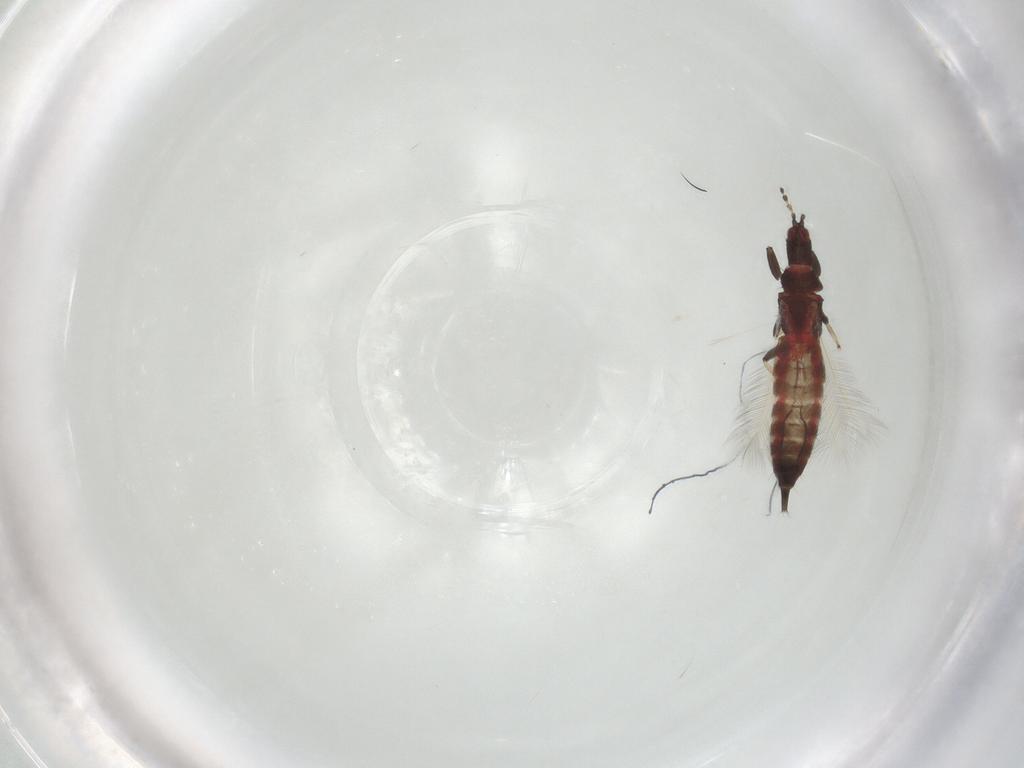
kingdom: Animalia
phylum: Arthropoda
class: Insecta
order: Thysanoptera
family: Phlaeothripidae
